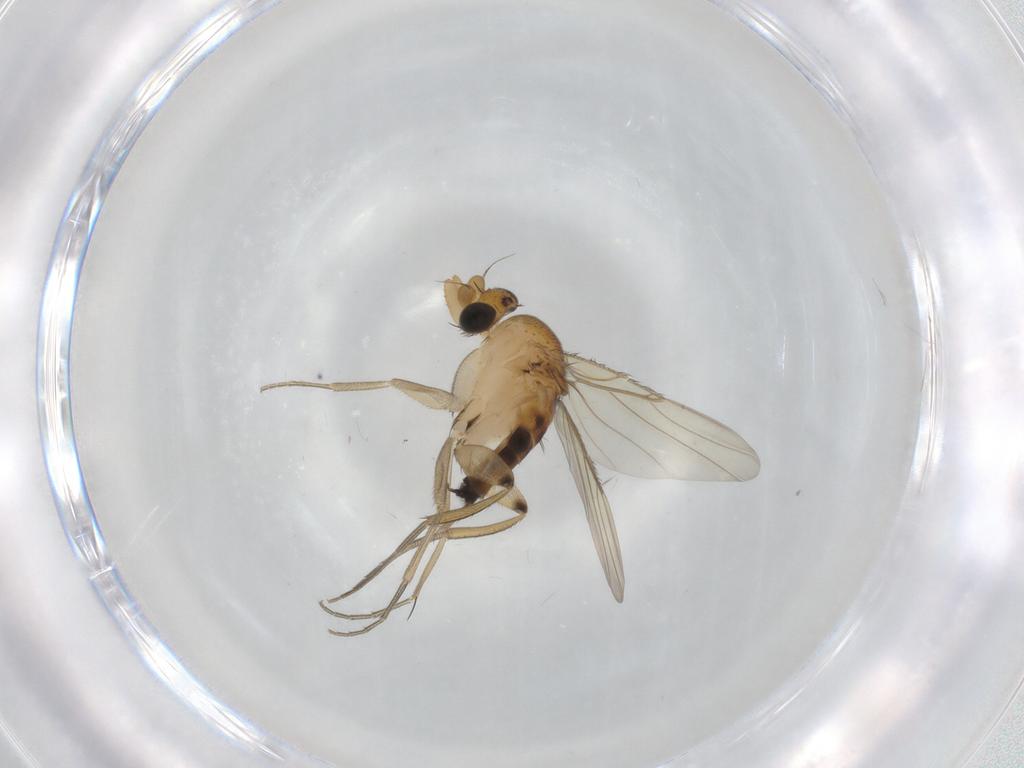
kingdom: Animalia
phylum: Arthropoda
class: Insecta
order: Diptera
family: Phoridae
